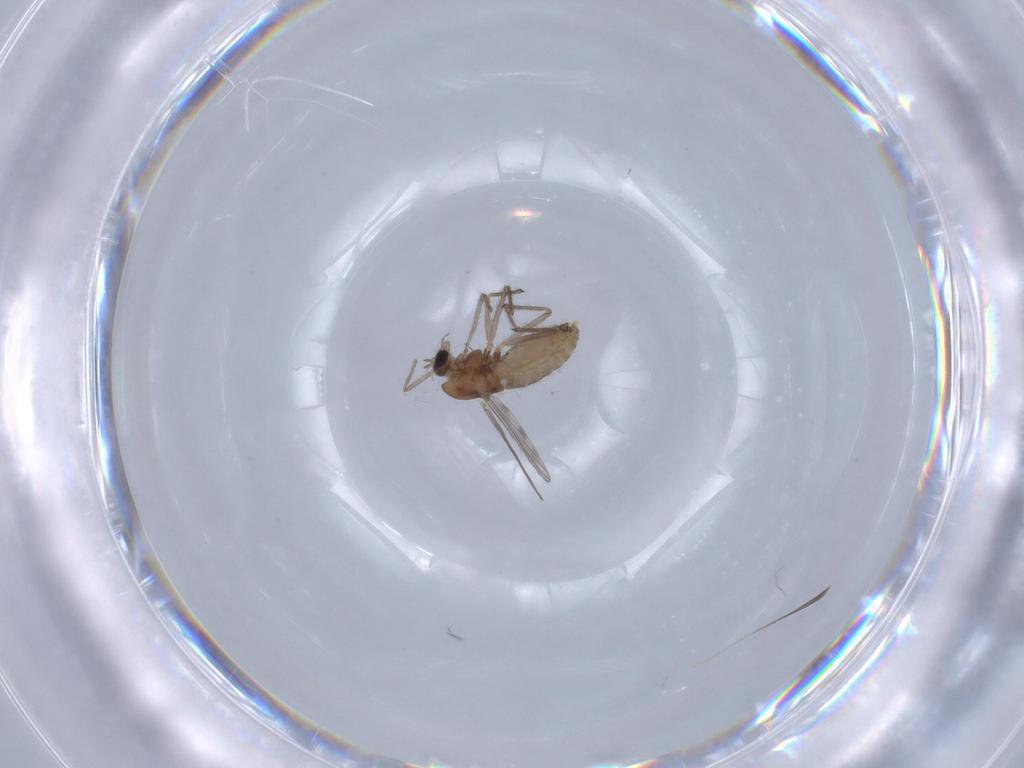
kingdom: Animalia
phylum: Arthropoda
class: Insecta
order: Diptera
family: Chironomidae
